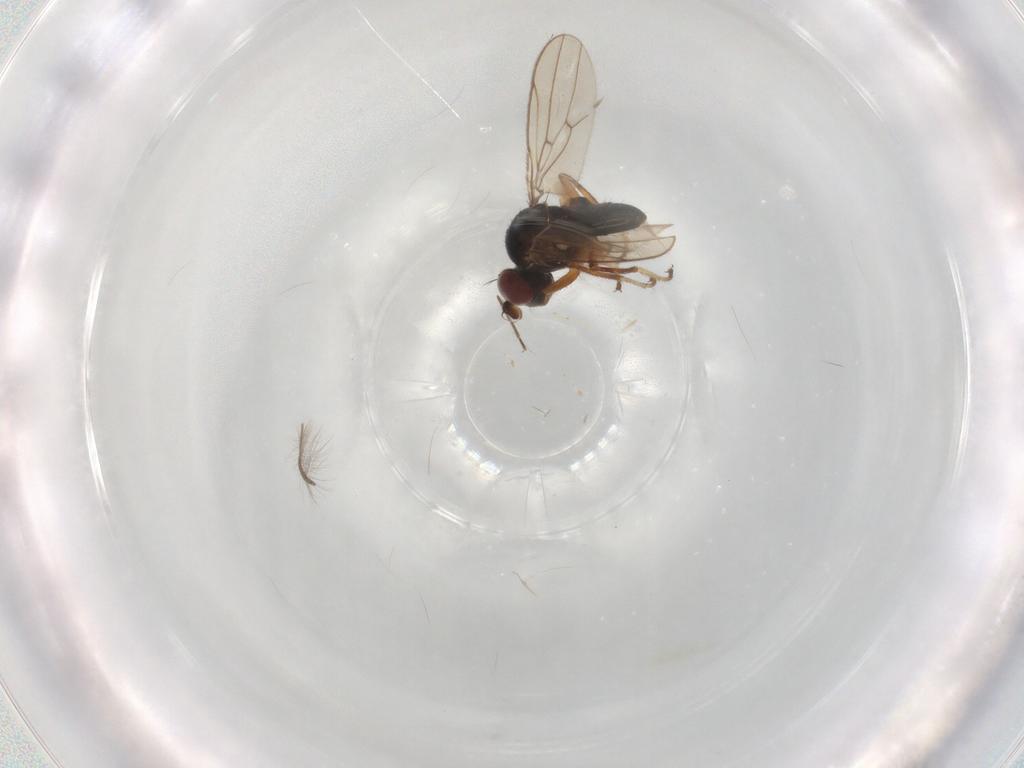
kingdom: Animalia
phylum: Arthropoda
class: Insecta
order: Diptera
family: Ephydridae
